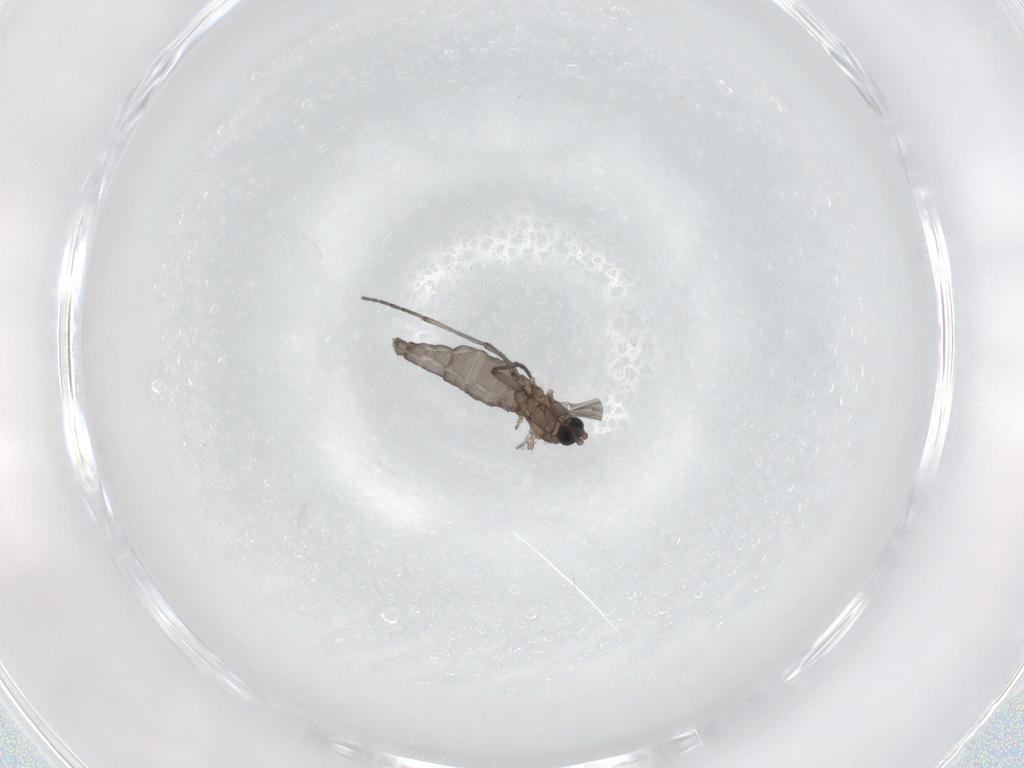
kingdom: Animalia
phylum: Arthropoda
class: Insecta
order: Diptera
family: Sciaridae
